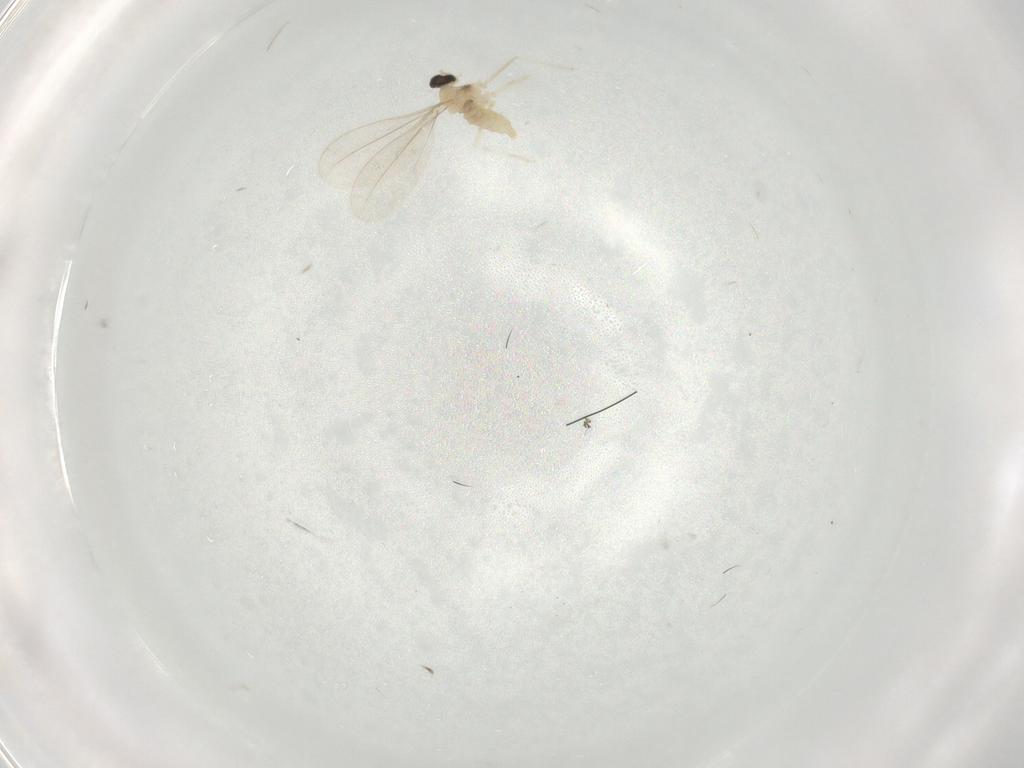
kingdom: Animalia
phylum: Arthropoda
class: Insecta
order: Diptera
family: Cecidomyiidae
